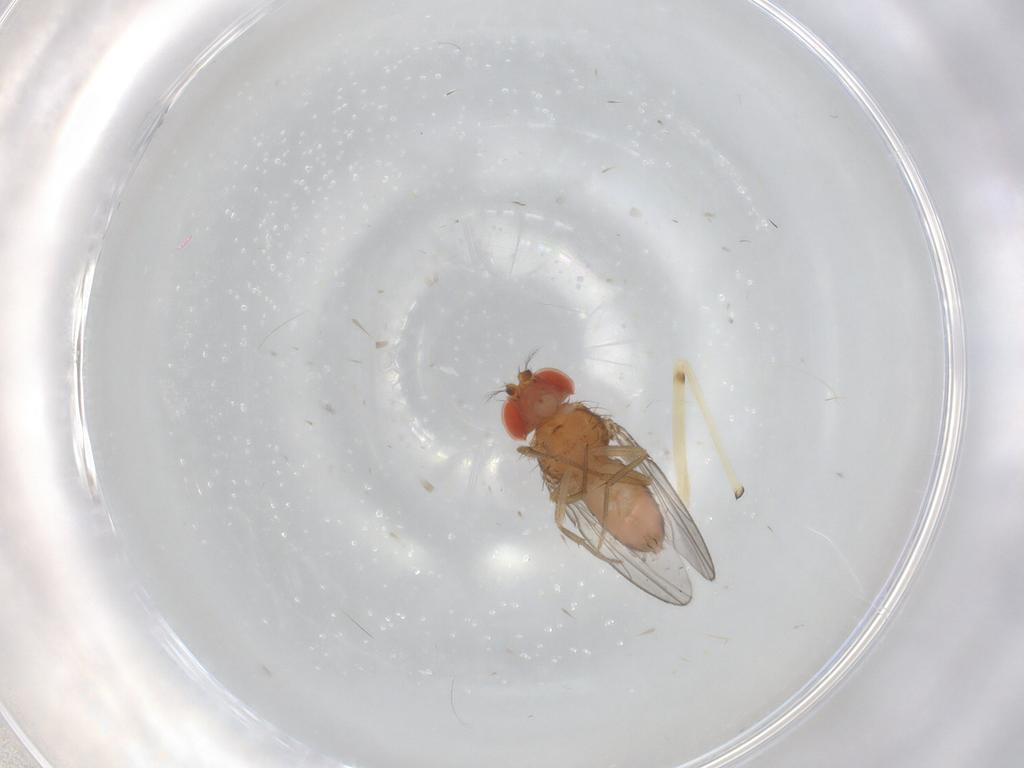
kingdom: Animalia
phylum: Arthropoda
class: Insecta
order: Diptera
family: Drosophilidae
